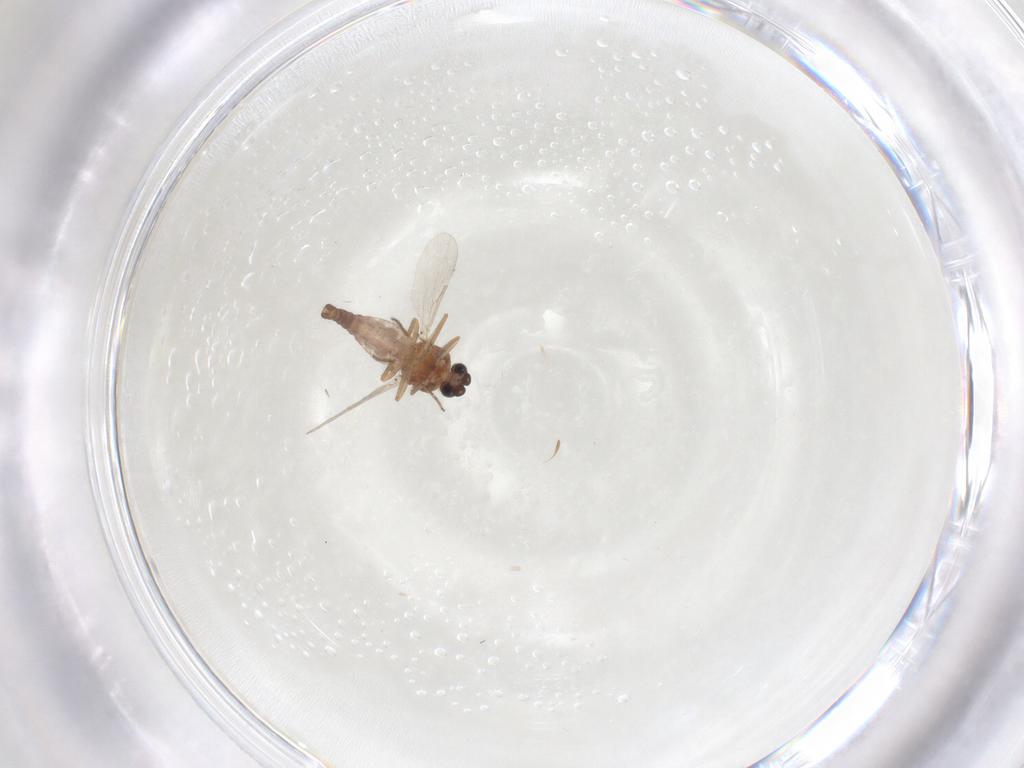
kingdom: Animalia
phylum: Arthropoda
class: Insecta
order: Diptera
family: Ceratopogonidae
